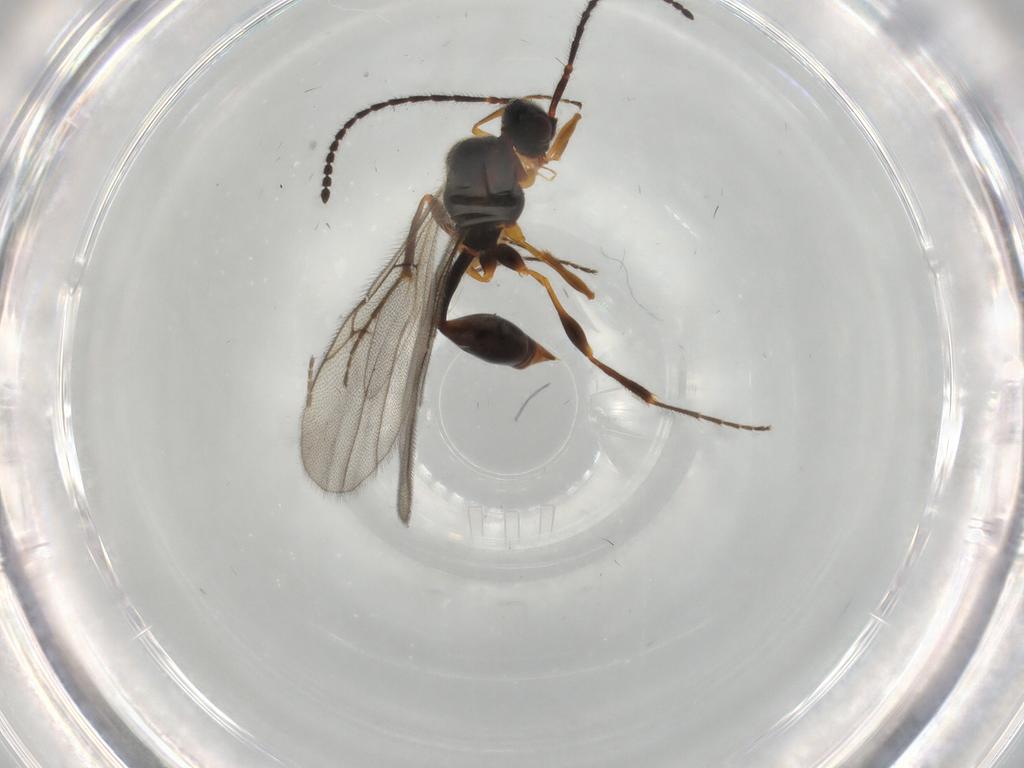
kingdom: Animalia
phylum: Arthropoda
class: Insecta
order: Hymenoptera
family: Diapriidae
